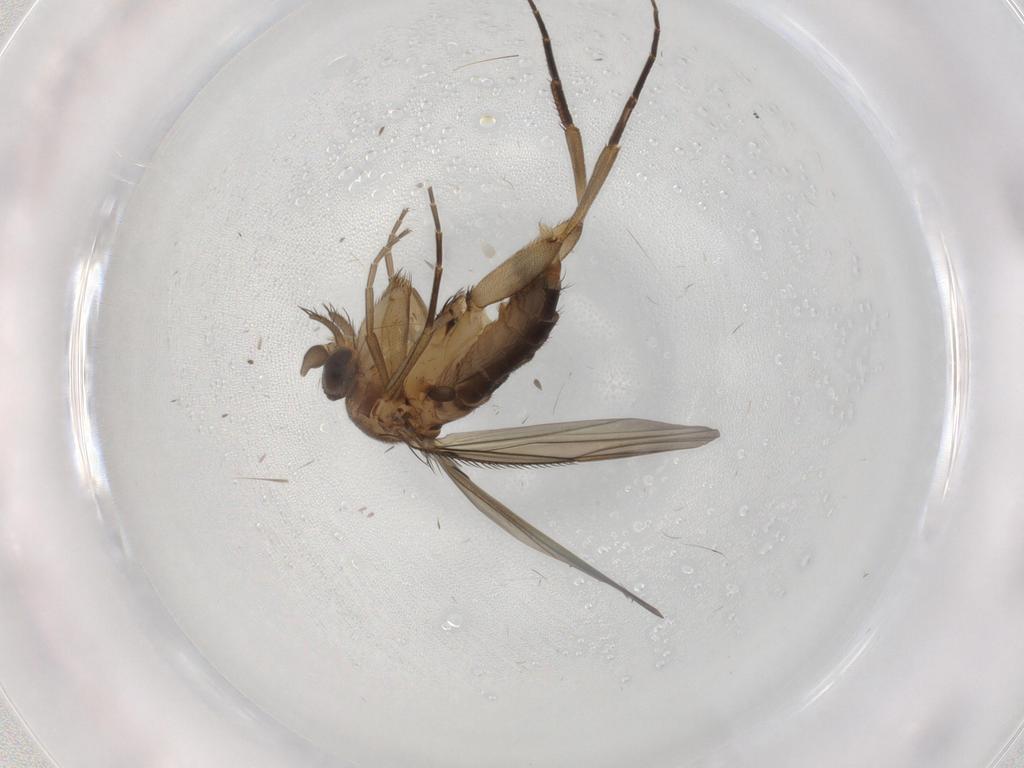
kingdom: Animalia
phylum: Arthropoda
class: Insecta
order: Diptera
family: Phoridae
